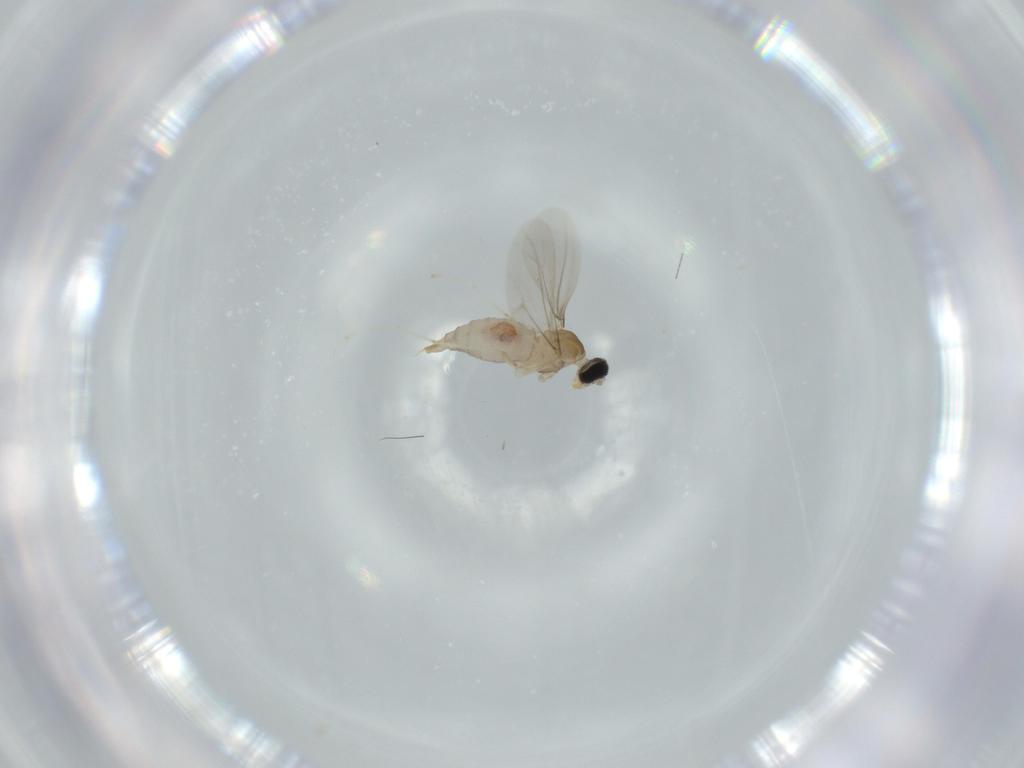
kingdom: Animalia
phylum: Arthropoda
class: Insecta
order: Diptera
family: Cecidomyiidae
